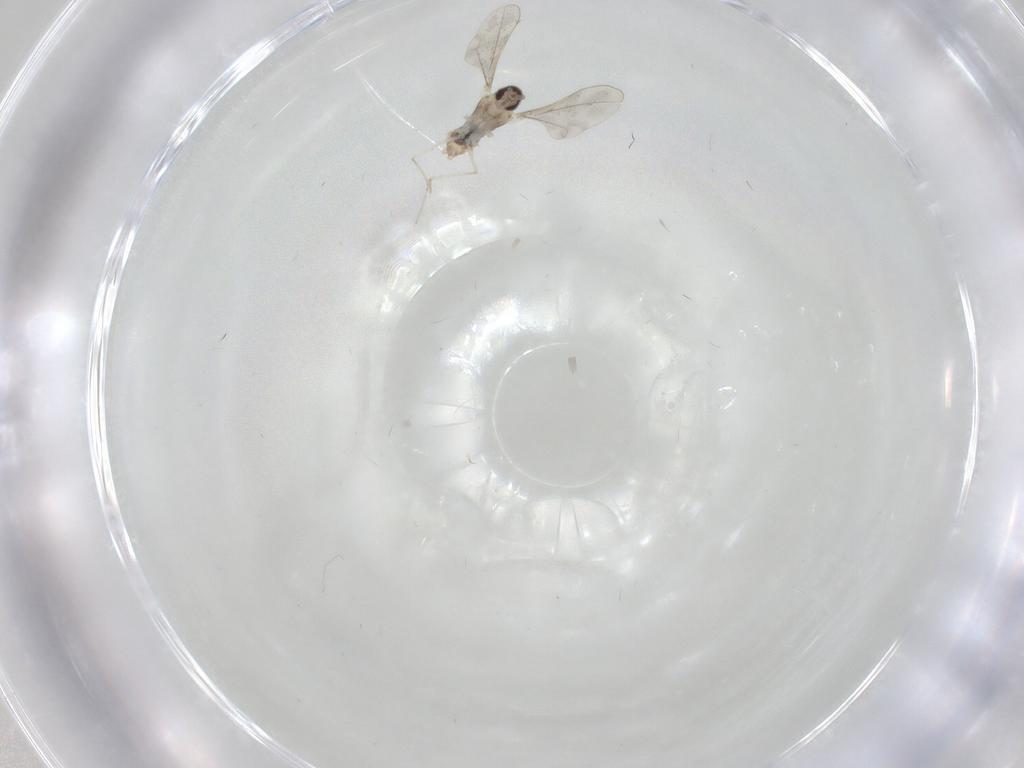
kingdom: Animalia
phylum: Arthropoda
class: Insecta
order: Diptera
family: Cecidomyiidae
